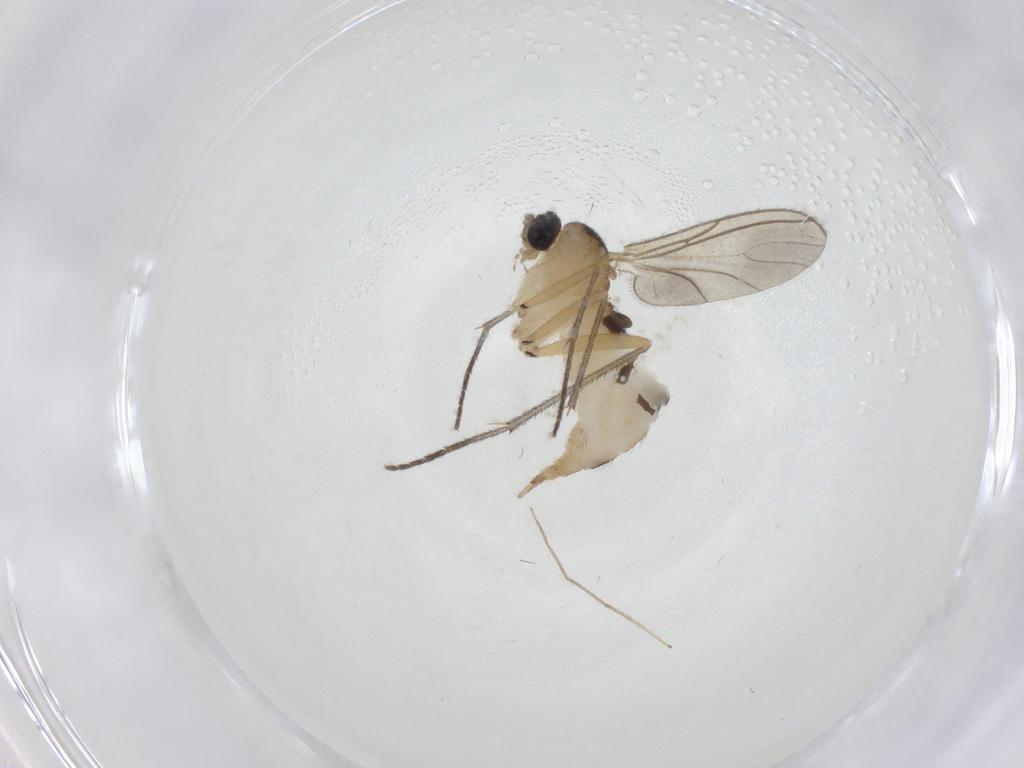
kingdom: Animalia
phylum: Arthropoda
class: Insecta
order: Diptera
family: Sciaridae
